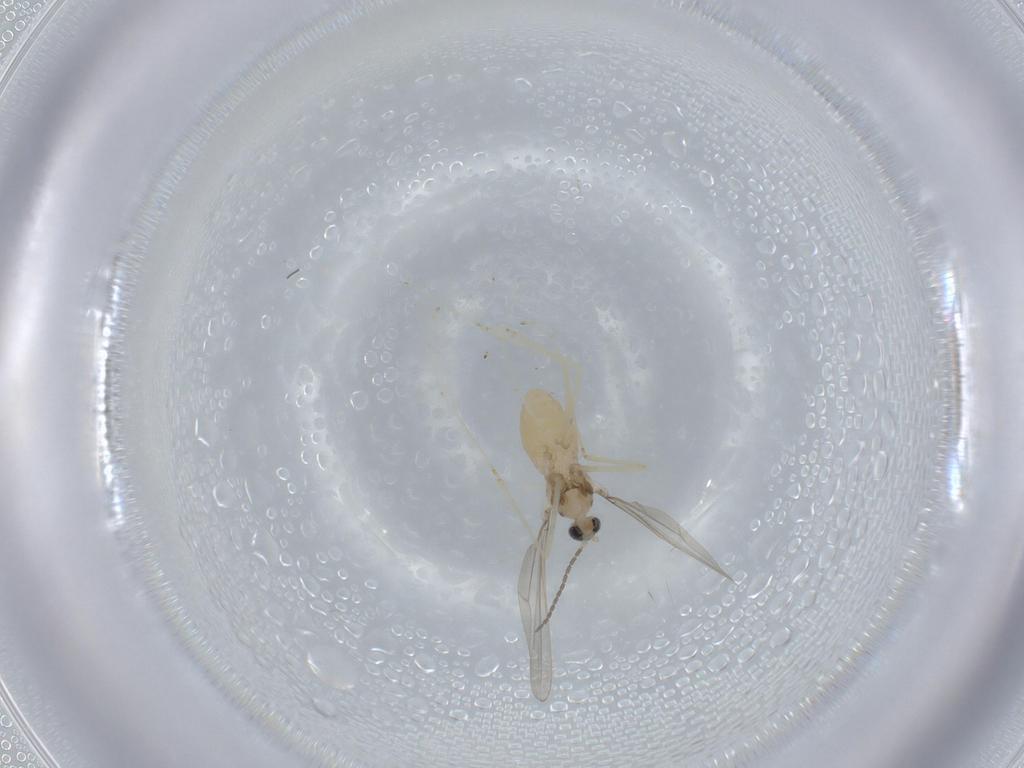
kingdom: Animalia
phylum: Arthropoda
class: Insecta
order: Diptera
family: Cecidomyiidae
